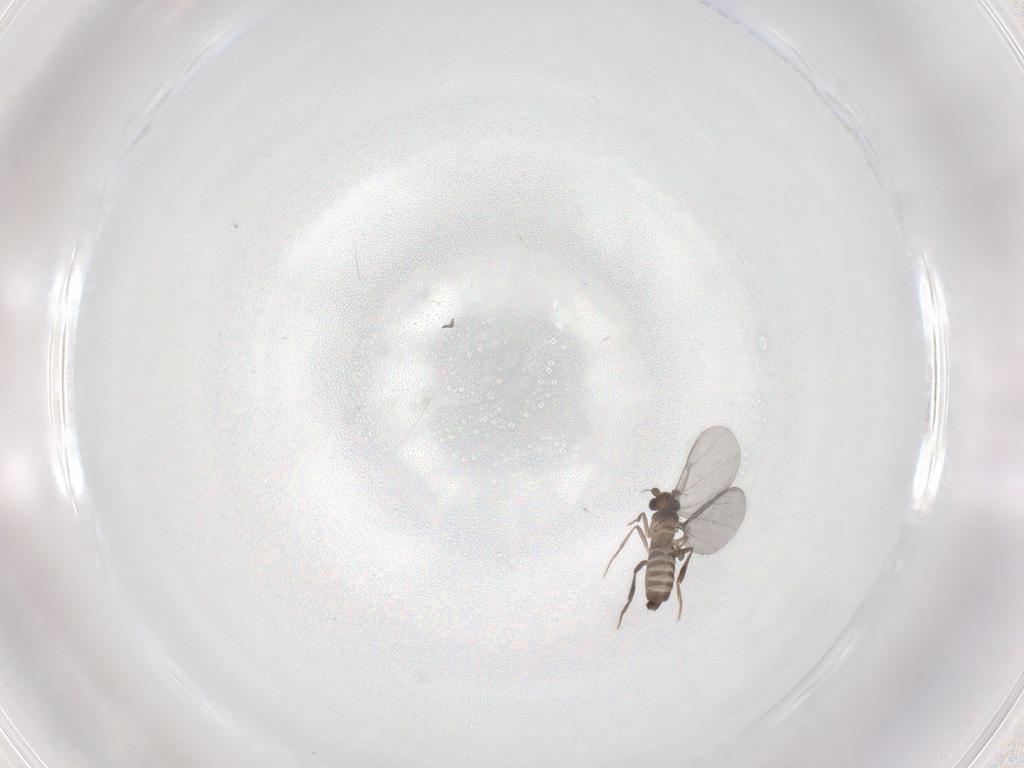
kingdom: Animalia
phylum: Arthropoda
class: Insecta
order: Diptera
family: Phoridae
